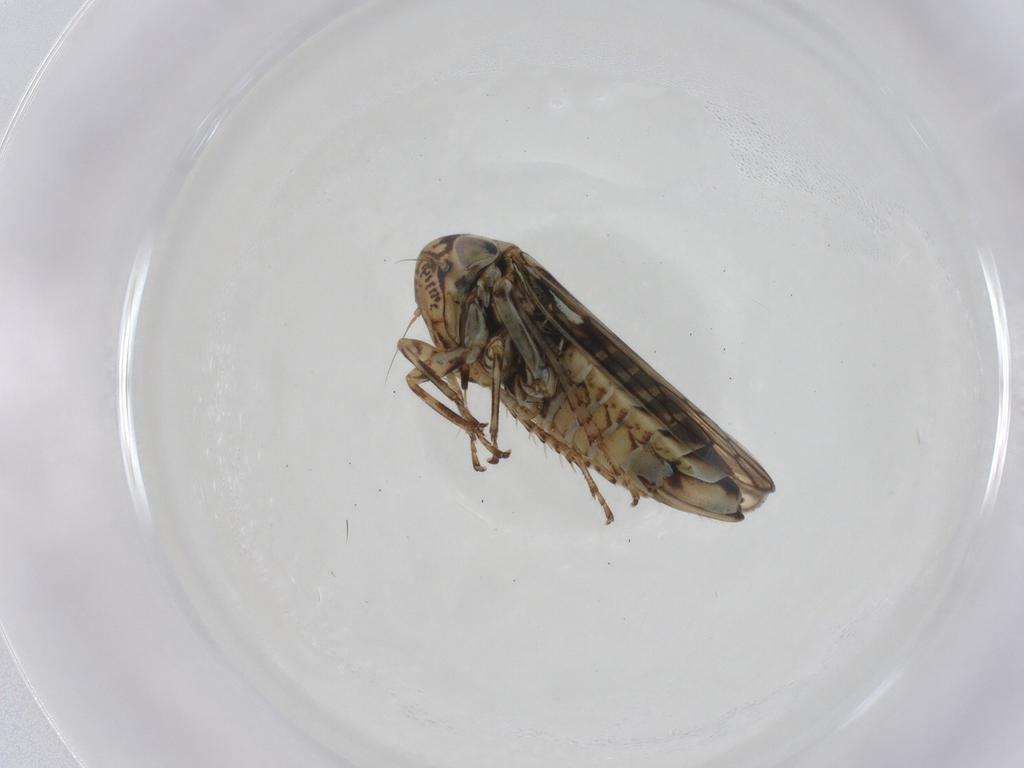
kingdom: Animalia
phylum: Arthropoda
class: Insecta
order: Hemiptera
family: Cicadellidae
